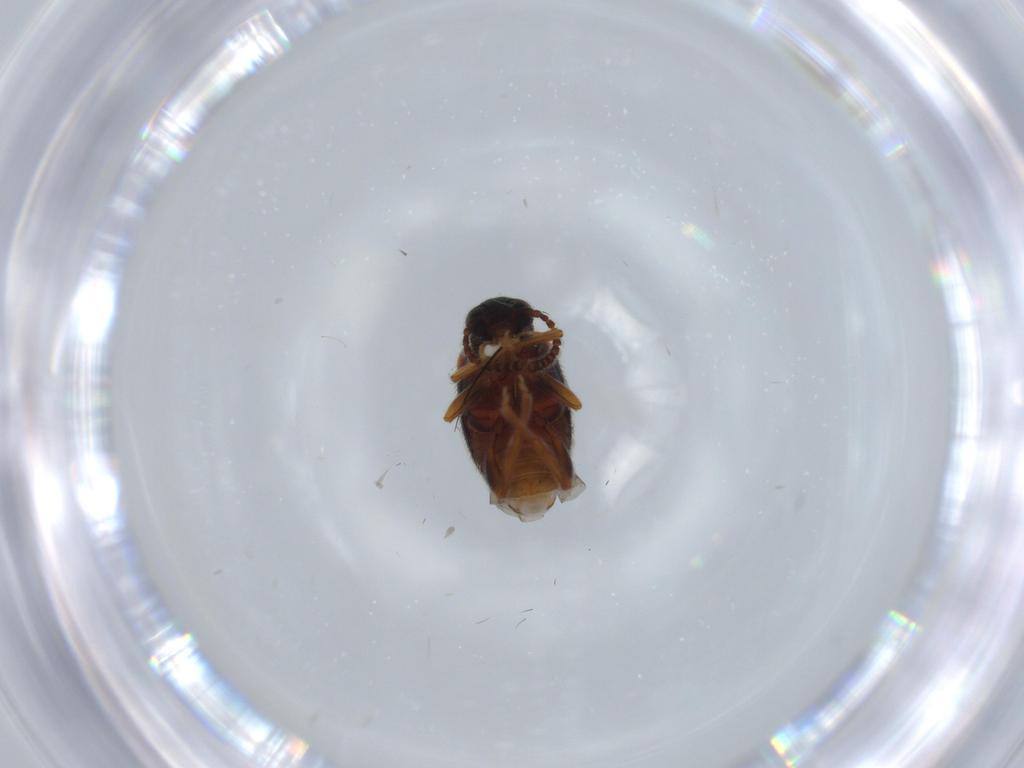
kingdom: Animalia
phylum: Arthropoda
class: Insecta
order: Coleoptera
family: Aderidae
